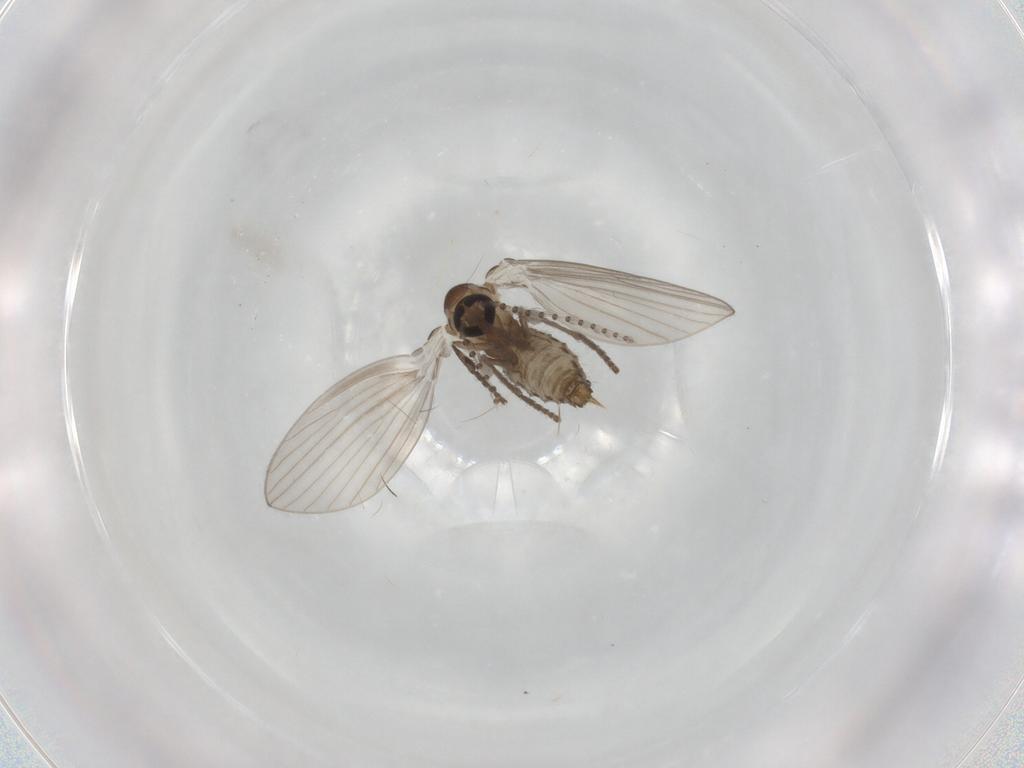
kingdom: Animalia
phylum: Arthropoda
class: Insecta
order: Diptera
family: Psychodidae
